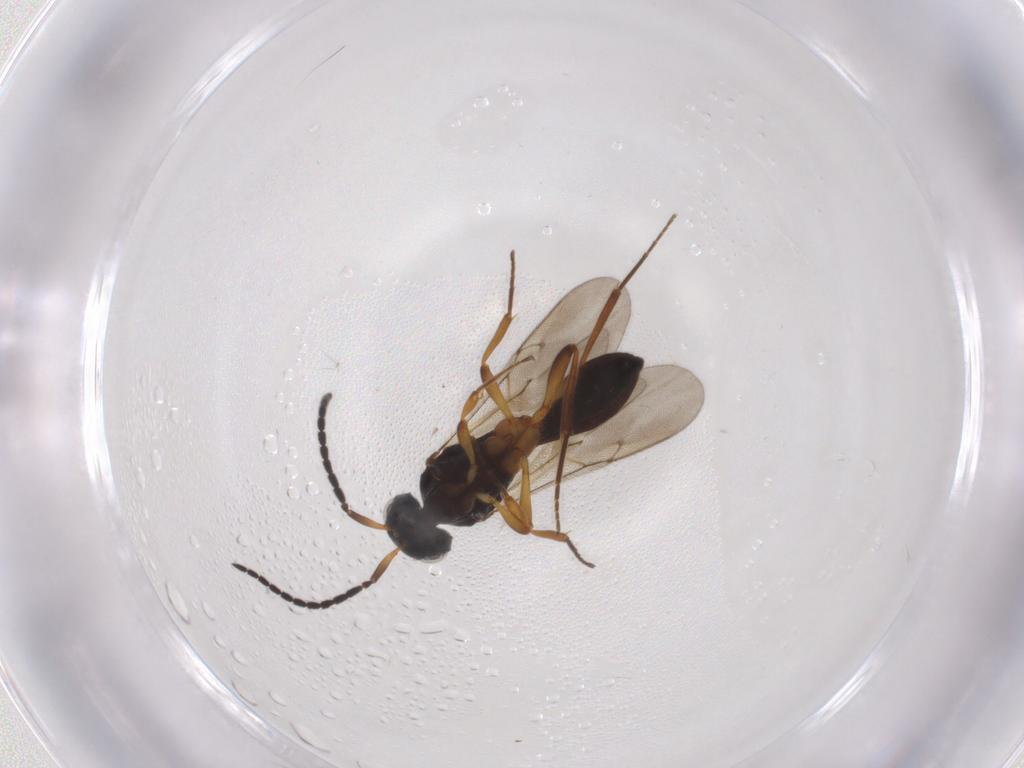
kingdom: Animalia
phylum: Arthropoda
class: Insecta
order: Hymenoptera
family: Scelionidae
